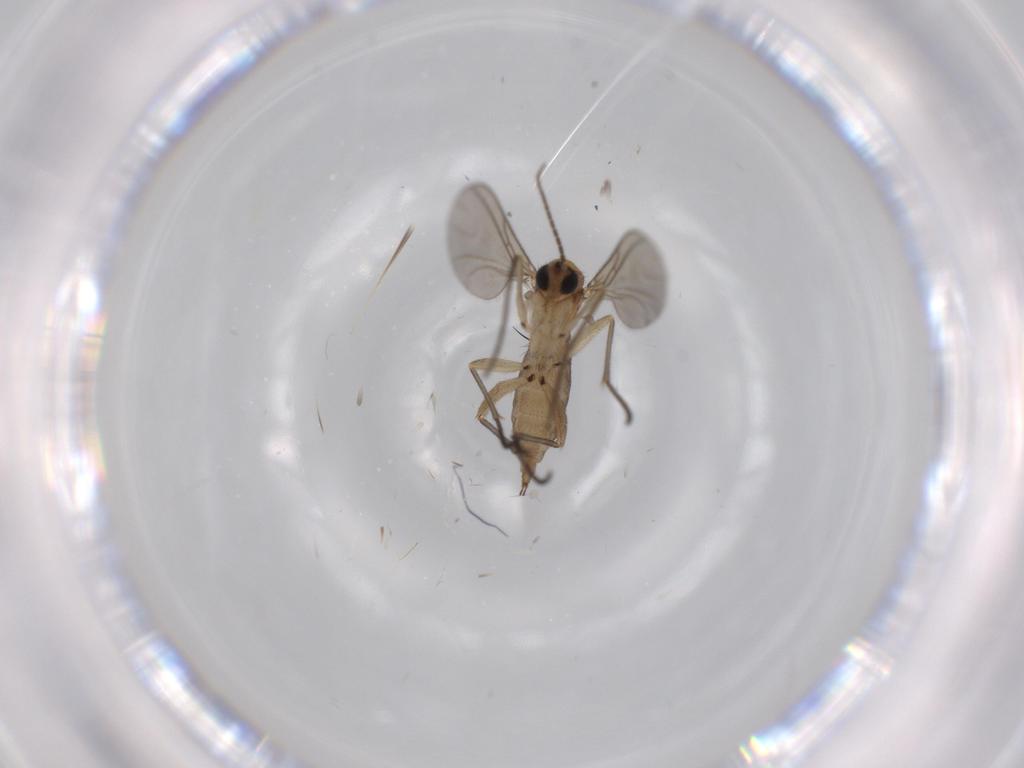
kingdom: Animalia
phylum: Arthropoda
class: Insecta
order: Diptera
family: Sciaridae
